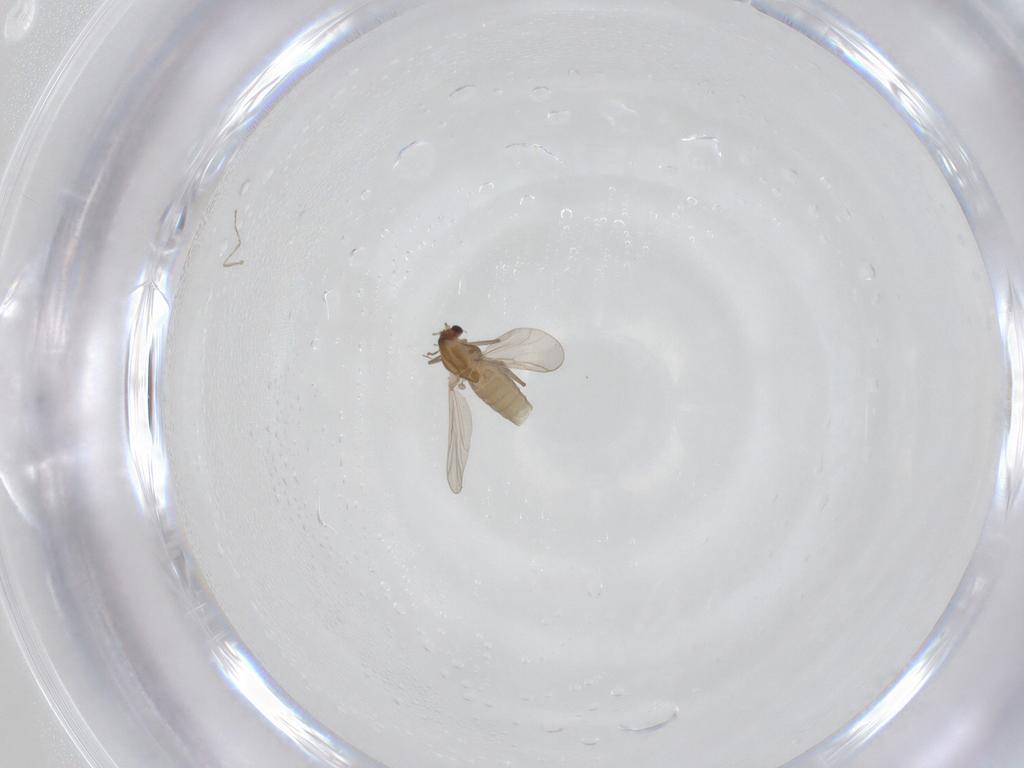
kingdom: Animalia
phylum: Arthropoda
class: Insecta
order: Diptera
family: Chironomidae
